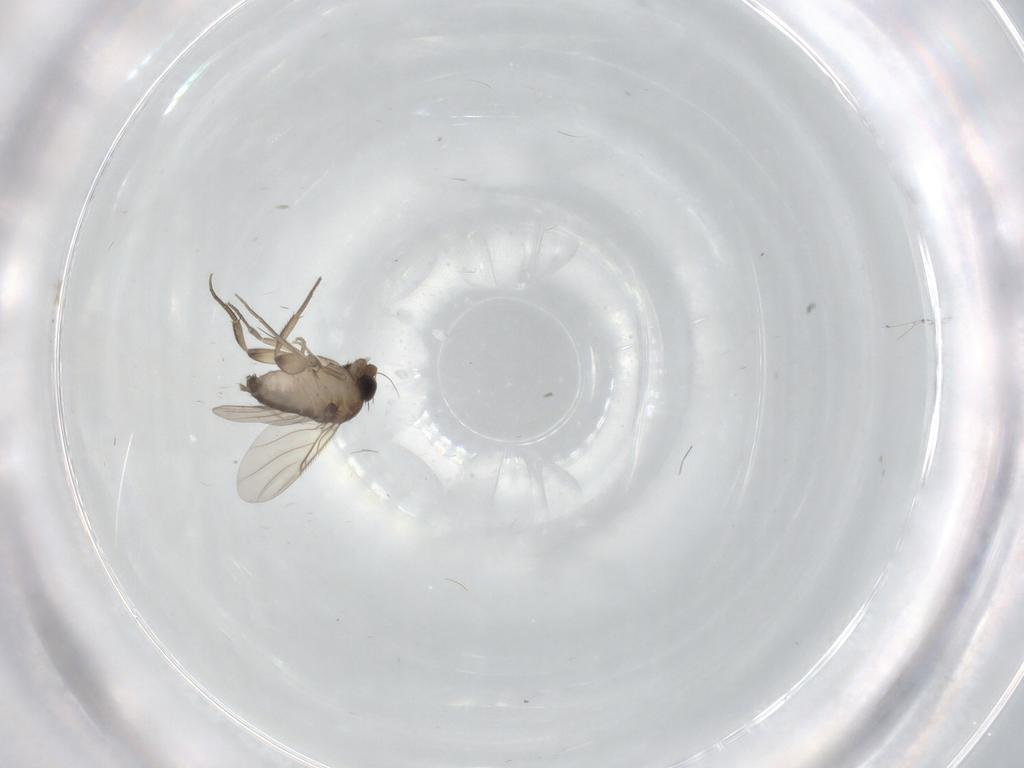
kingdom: Animalia
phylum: Arthropoda
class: Insecta
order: Diptera
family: Phoridae
